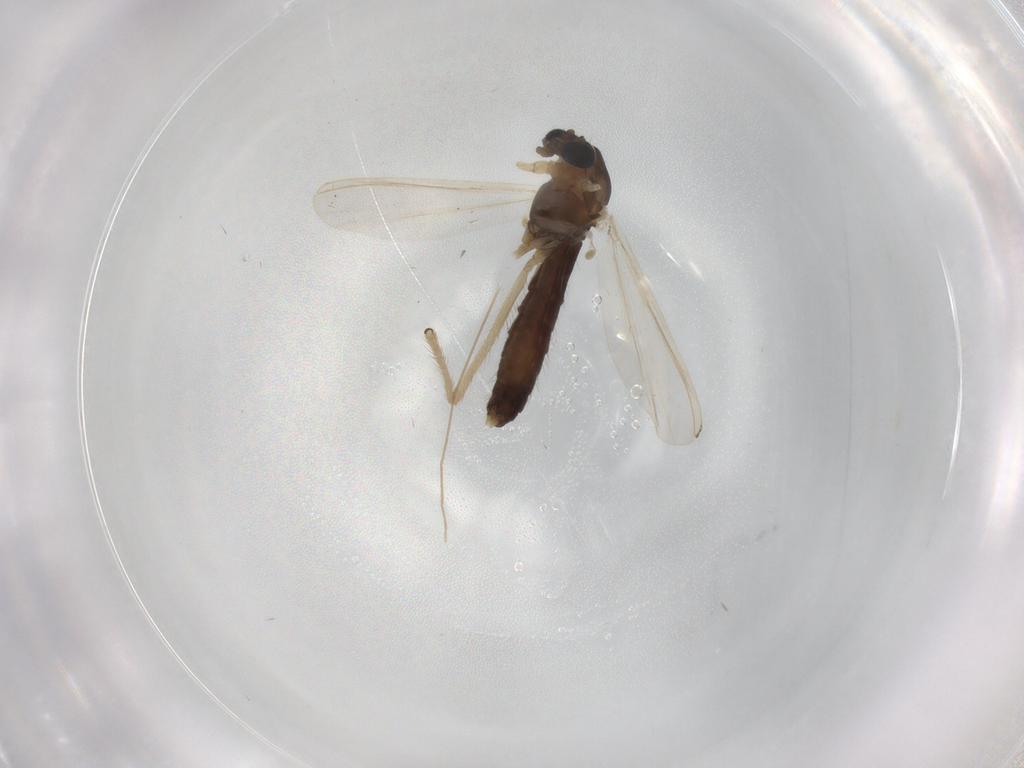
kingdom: Animalia
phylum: Arthropoda
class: Insecta
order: Diptera
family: Chironomidae
